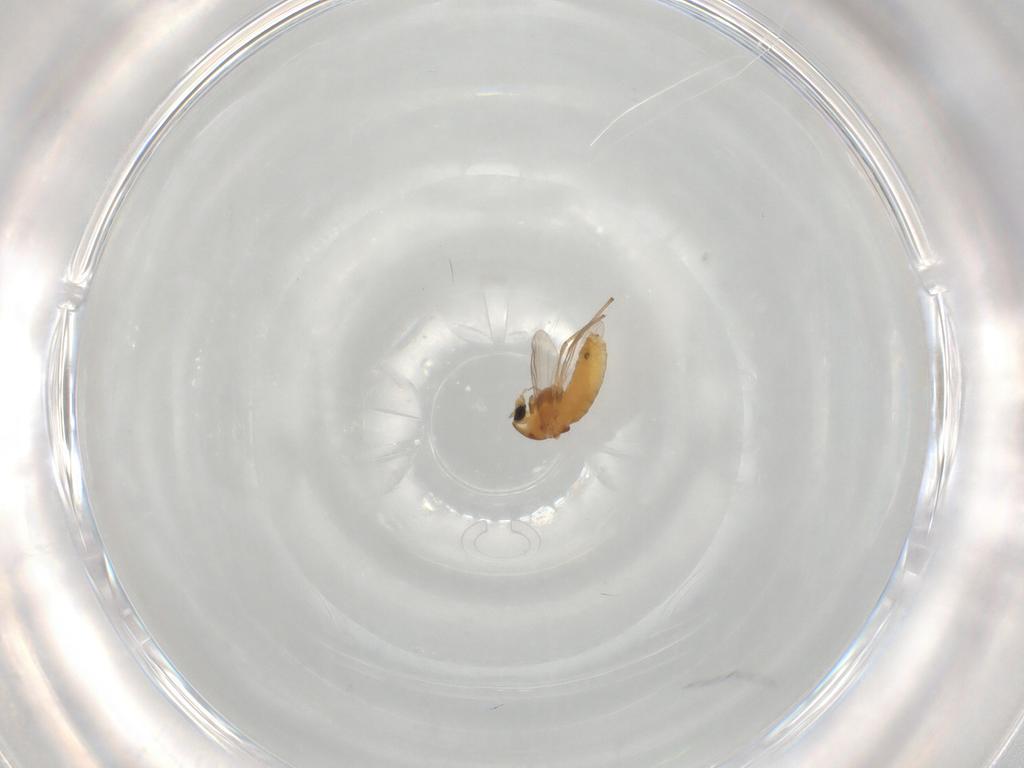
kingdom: Animalia
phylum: Arthropoda
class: Insecta
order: Diptera
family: Chironomidae
